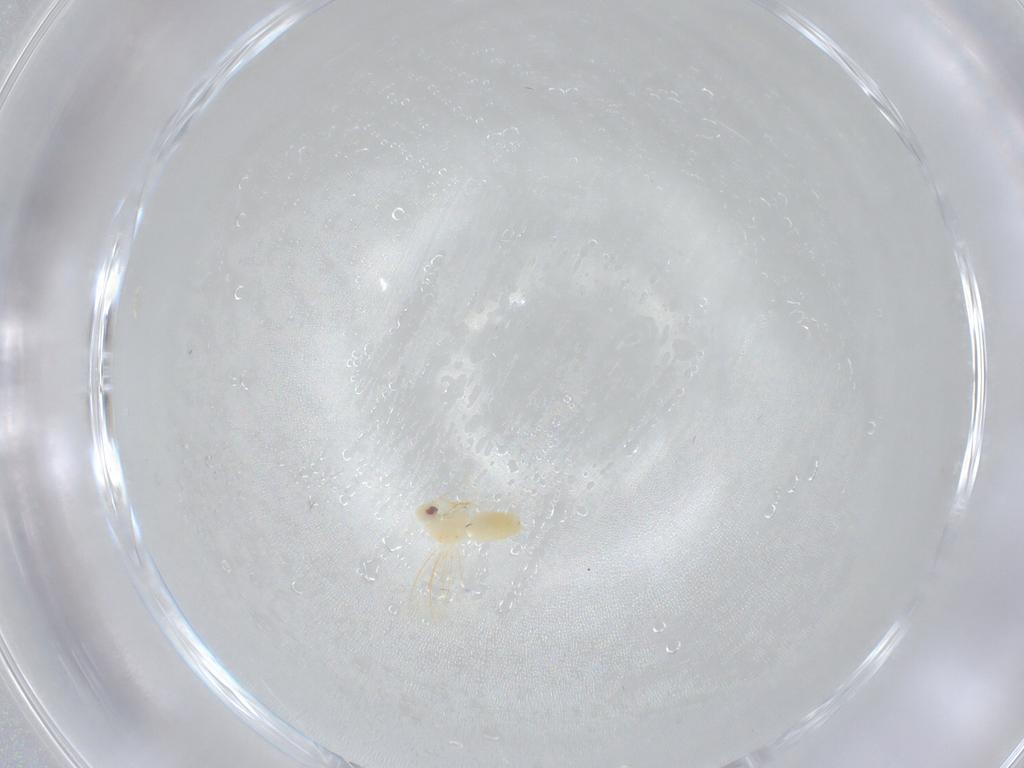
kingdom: Animalia
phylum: Arthropoda
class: Insecta
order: Hemiptera
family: Aleyrodidae
